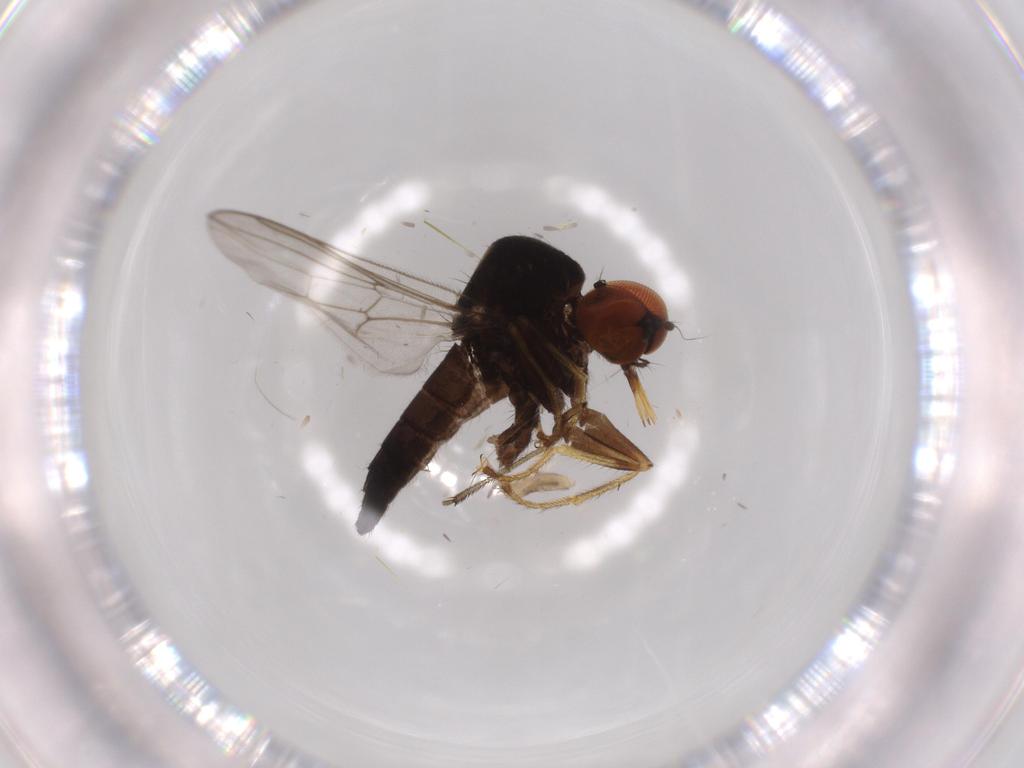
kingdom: Animalia
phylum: Arthropoda
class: Insecta
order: Diptera
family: Hybotidae
